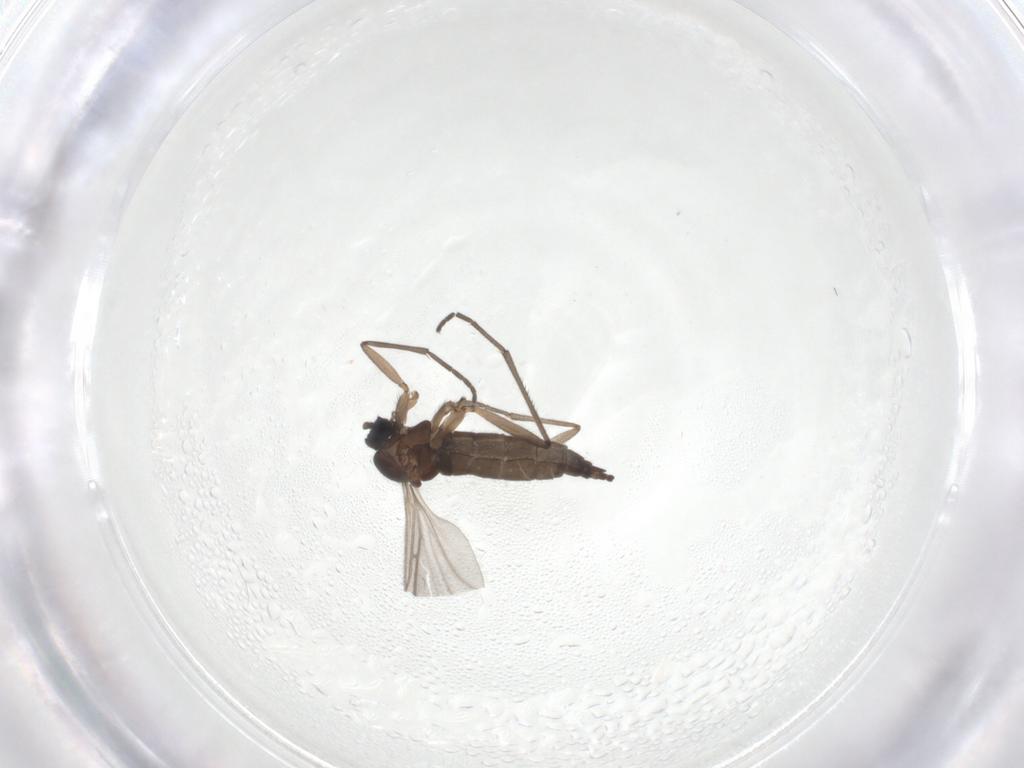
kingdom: Animalia
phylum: Arthropoda
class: Insecta
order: Diptera
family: Sciaridae
